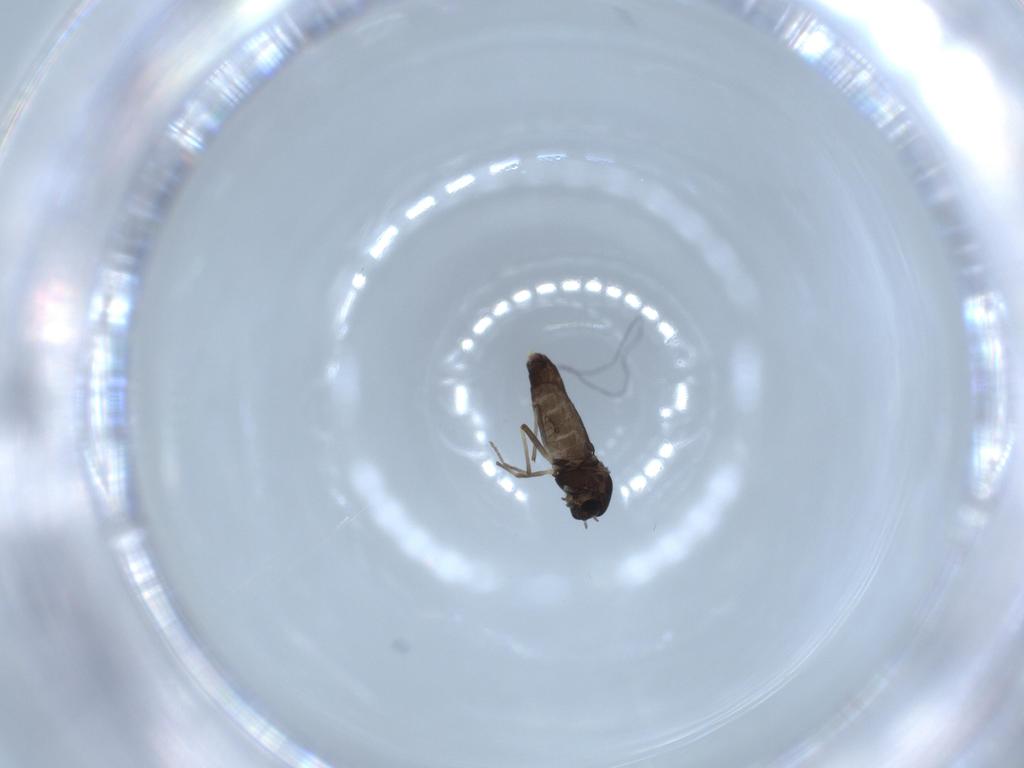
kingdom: Animalia
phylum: Arthropoda
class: Insecta
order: Diptera
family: Chironomidae
